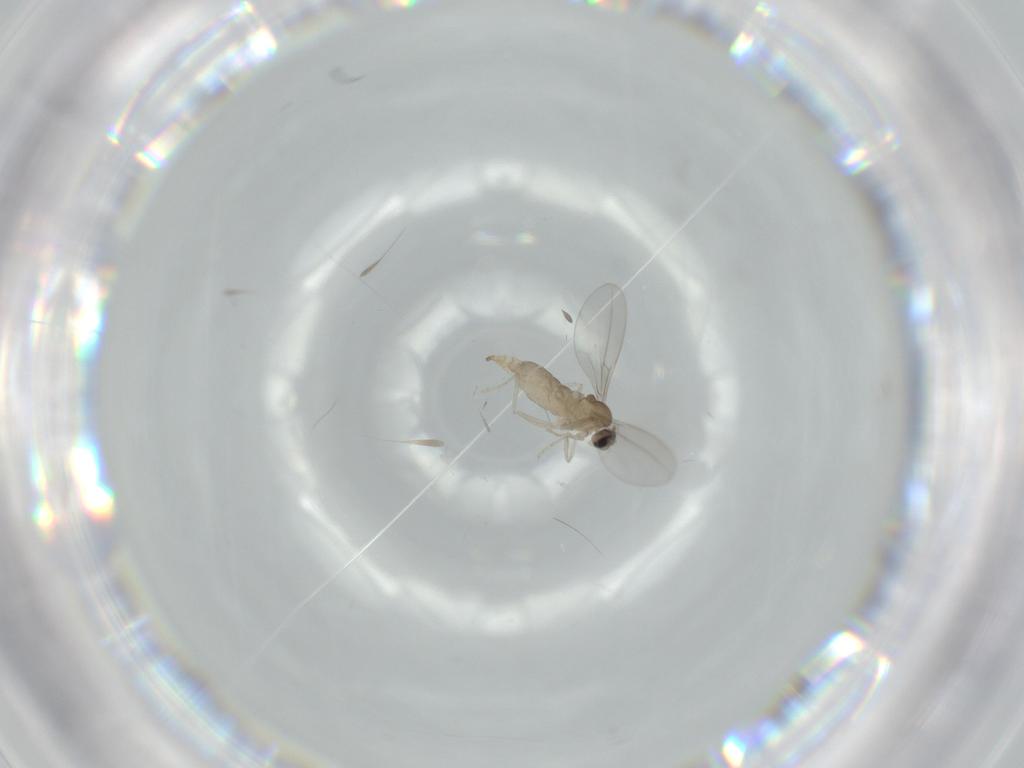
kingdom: Animalia
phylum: Arthropoda
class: Insecta
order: Diptera
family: Cecidomyiidae
